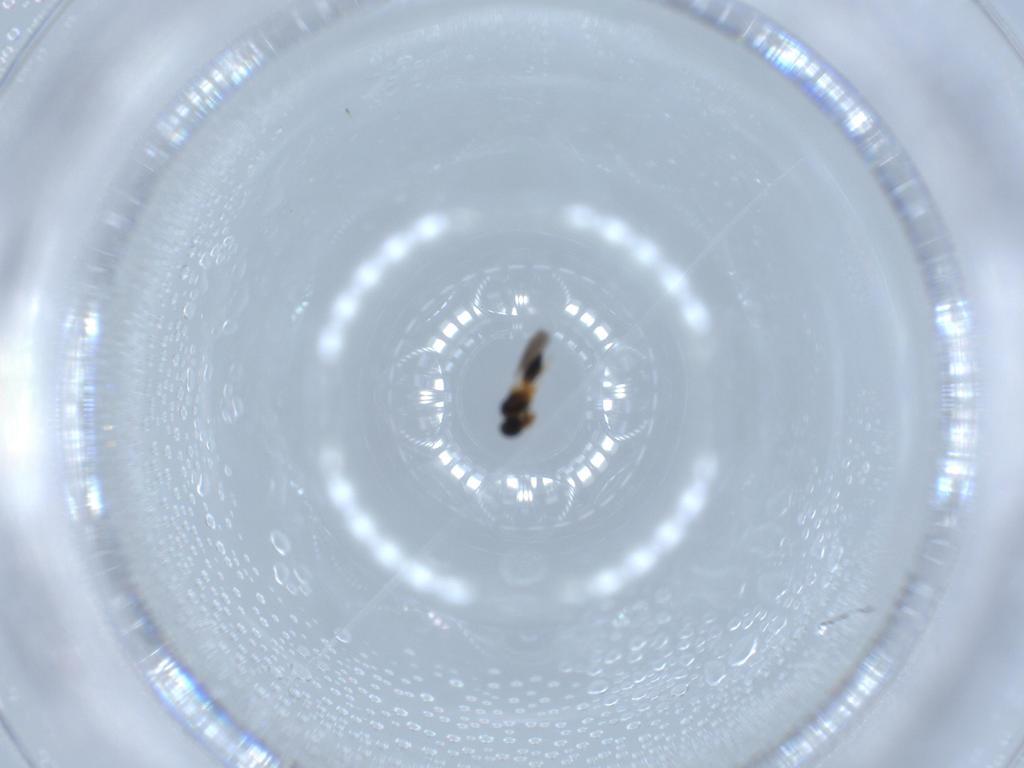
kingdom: Animalia
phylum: Arthropoda
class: Insecta
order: Hymenoptera
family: Platygastridae
